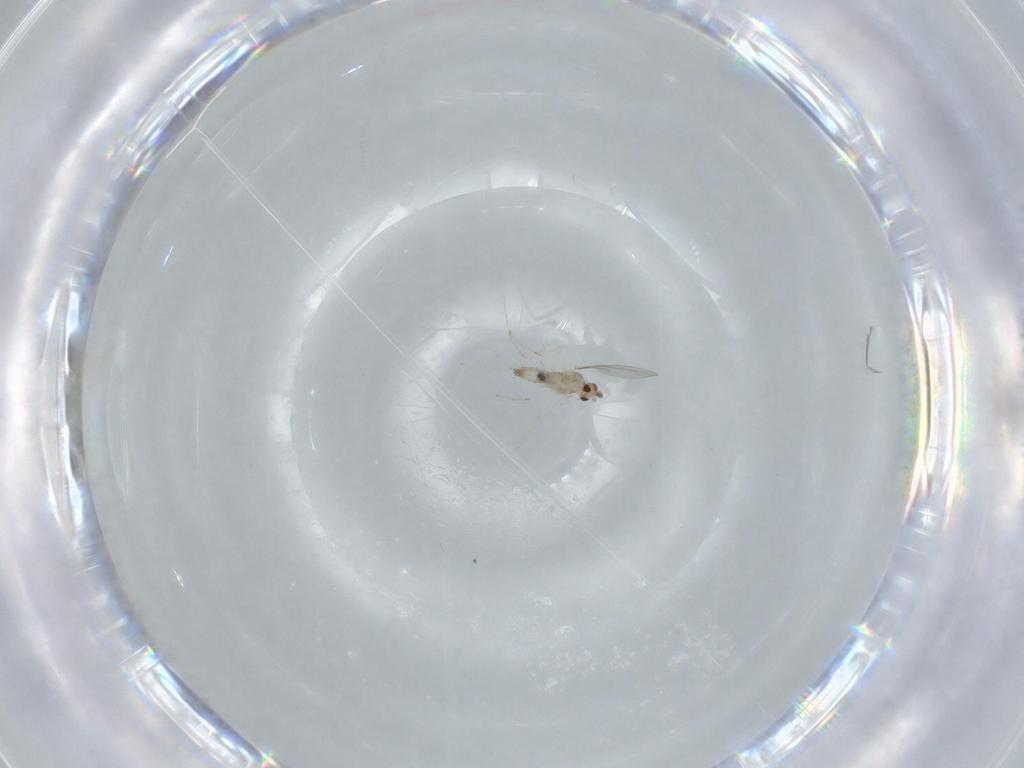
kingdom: Animalia
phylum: Arthropoda
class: Insecta
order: Diptera
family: Cecidomyiidae
